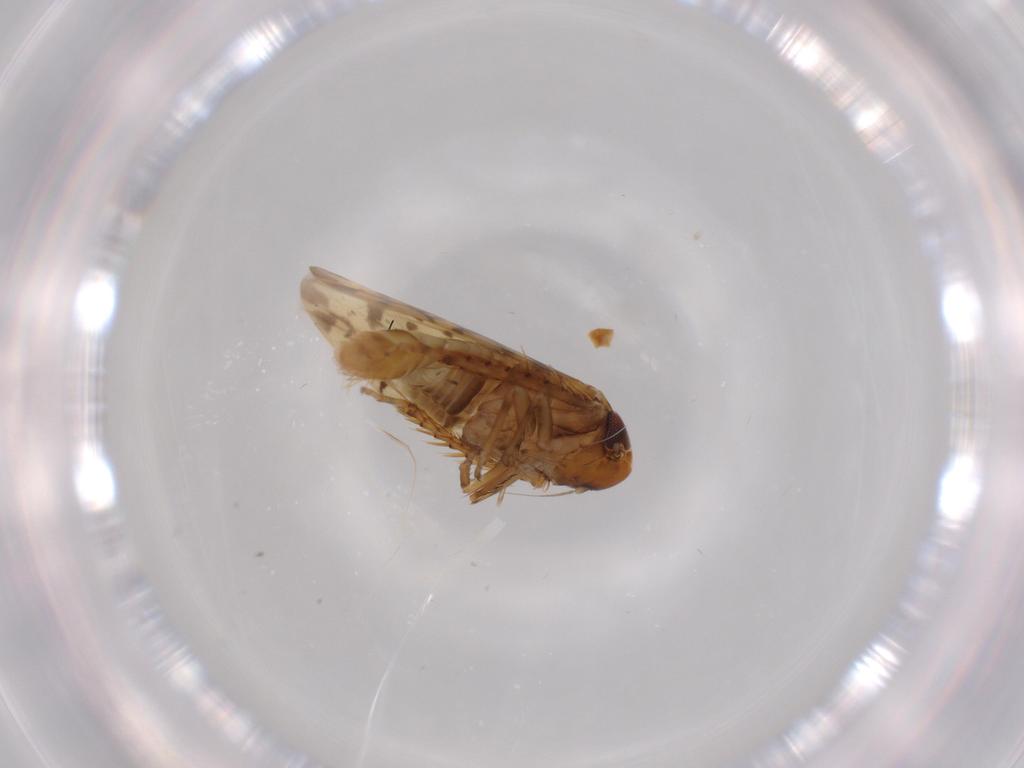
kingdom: Animalia
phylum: Arthropoda
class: Insecta
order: Hemiptera
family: Cicadellidae
